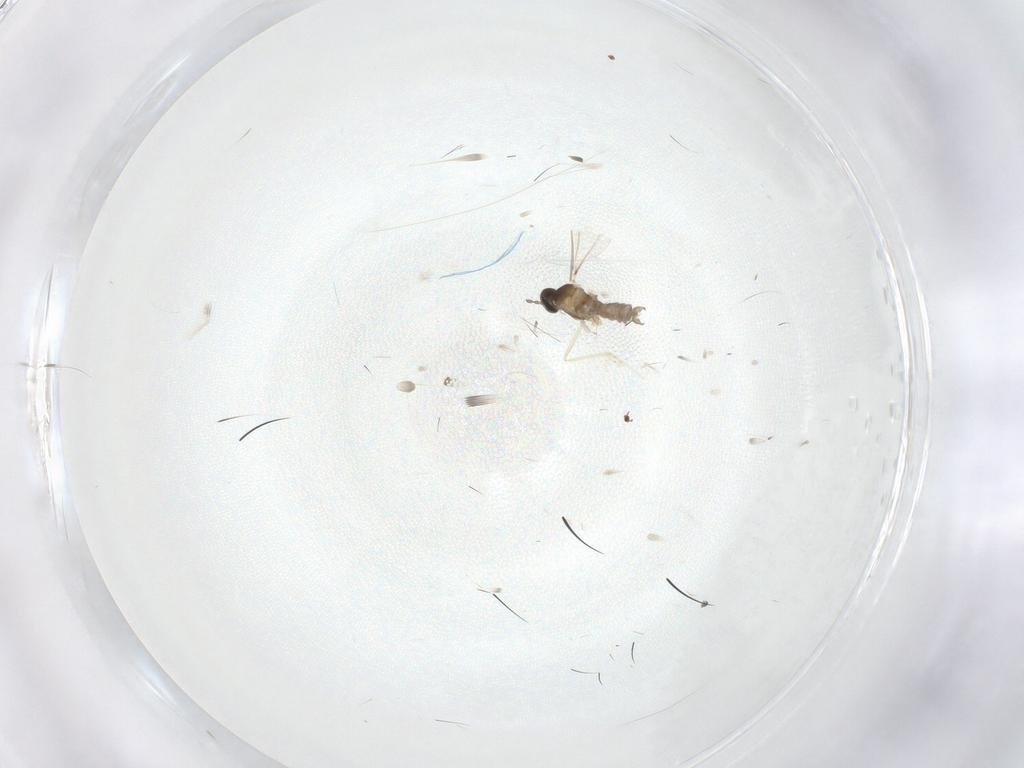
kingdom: Animalia
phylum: Arthropoda
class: Insecta
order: Diptera
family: Cecidomyiidae
